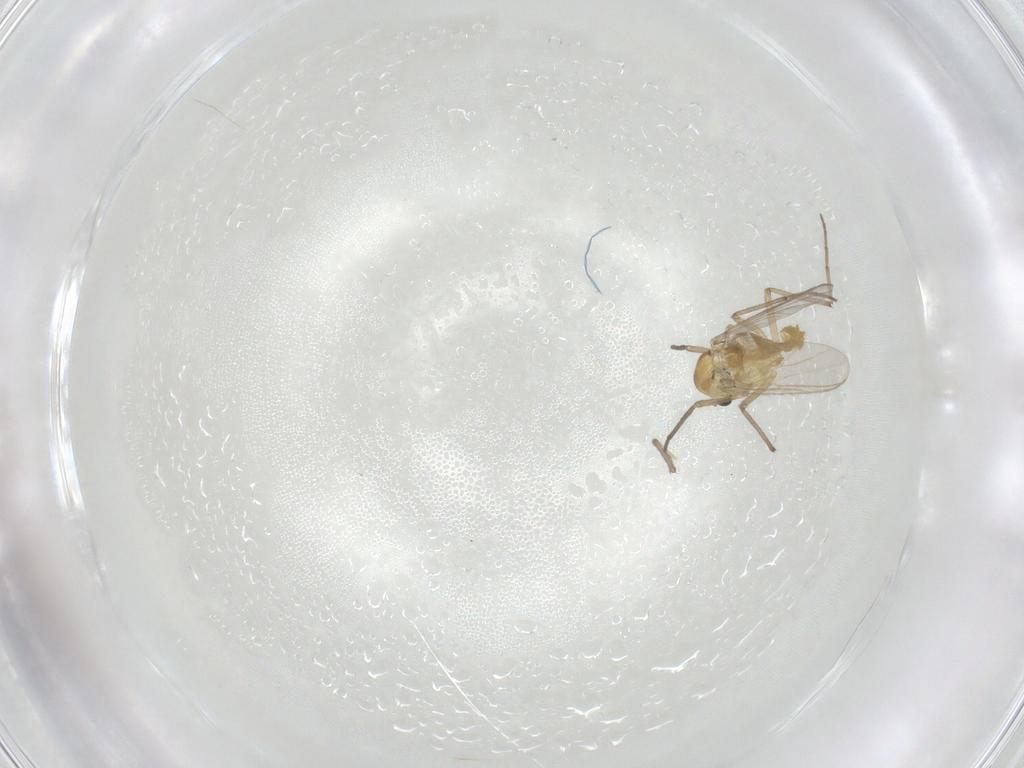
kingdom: Animalia
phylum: Arthropoda
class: Insecta
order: Diptera
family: Chironomidae
